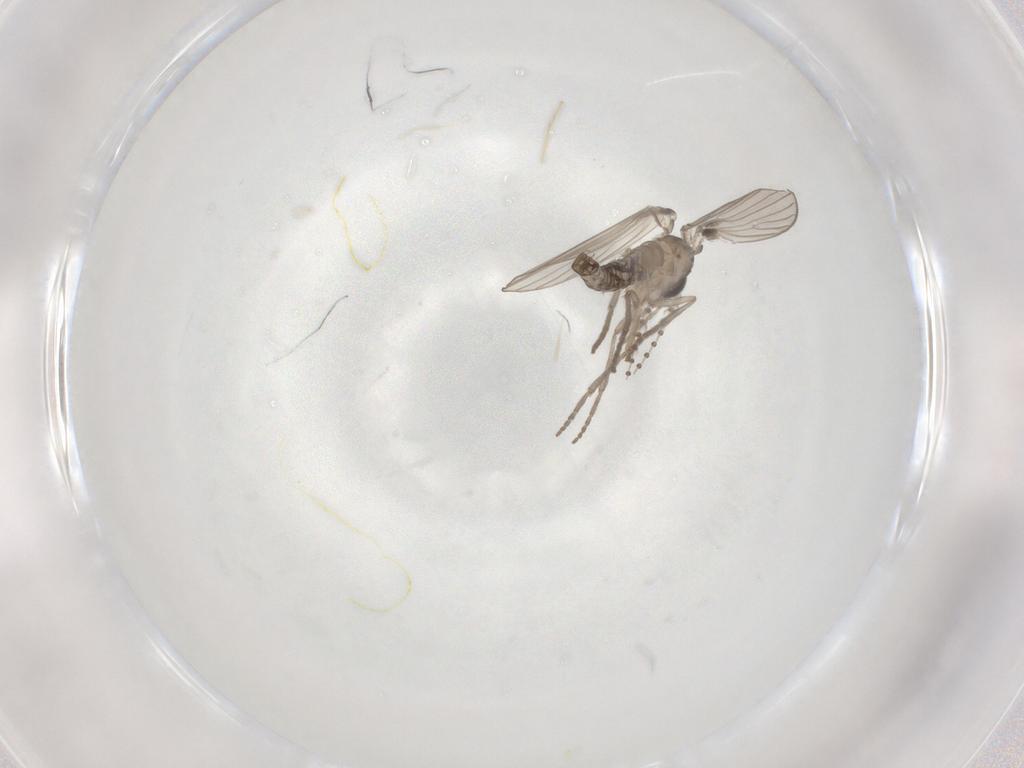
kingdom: Animalia
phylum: Arthropoda
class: Insecta
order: Diptera
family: Psychodidae
